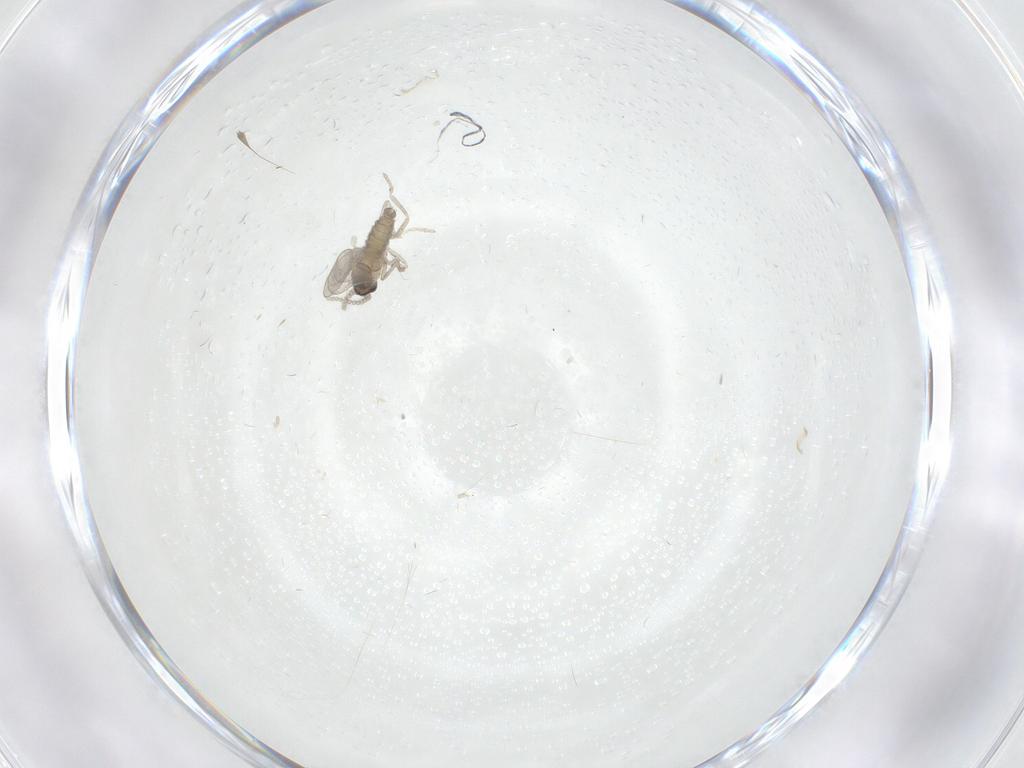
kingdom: Animalia
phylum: Arthropoda
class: Insecta
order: Diptera
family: Cecidomyiidae
